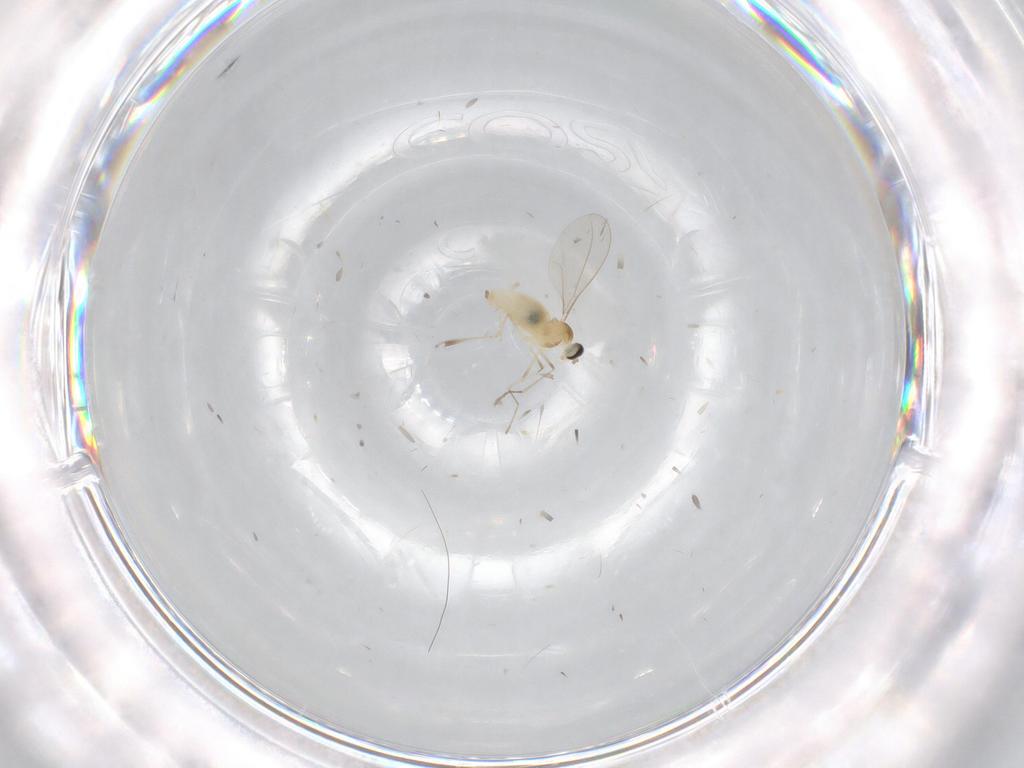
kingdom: Animalia
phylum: Arthropoda
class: Insecta
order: Diptera
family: Cecidomyiidae
